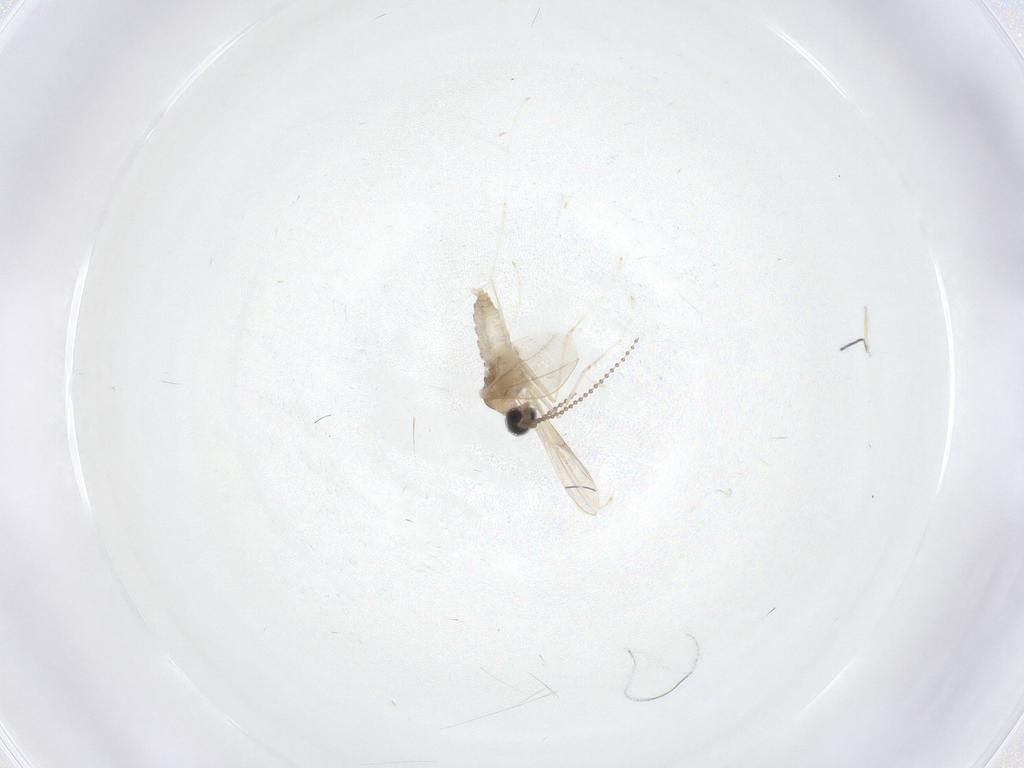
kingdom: Animalia
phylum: Arthropoda
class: Insecta
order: Diptera
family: Cecidomyiidae
